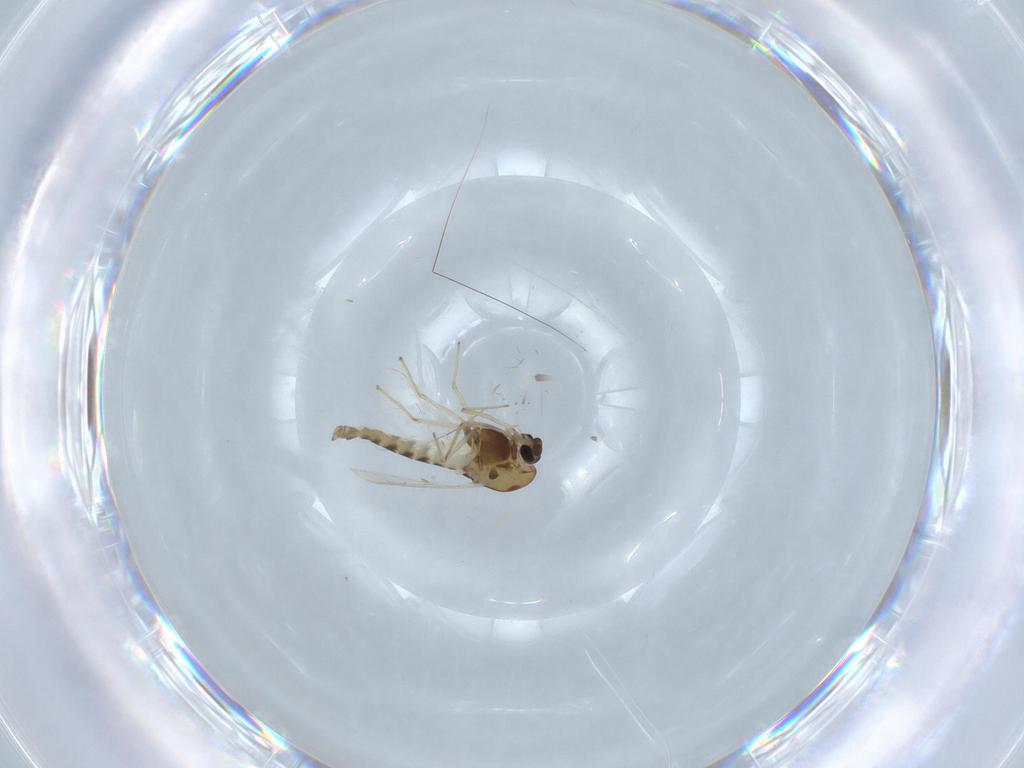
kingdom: Animalia
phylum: Arthropoda
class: Insecta
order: Diptera
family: Chironomidae
